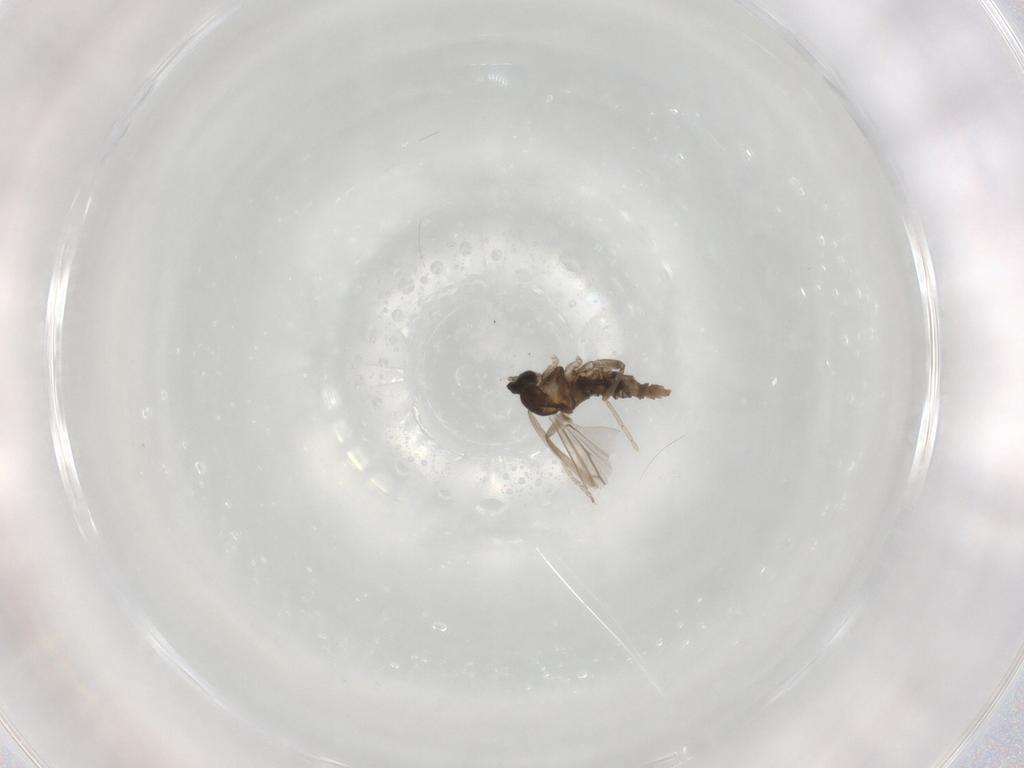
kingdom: Animalia
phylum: Arthropoda
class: Insecta
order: Diptera
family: Cecidomyiidae
